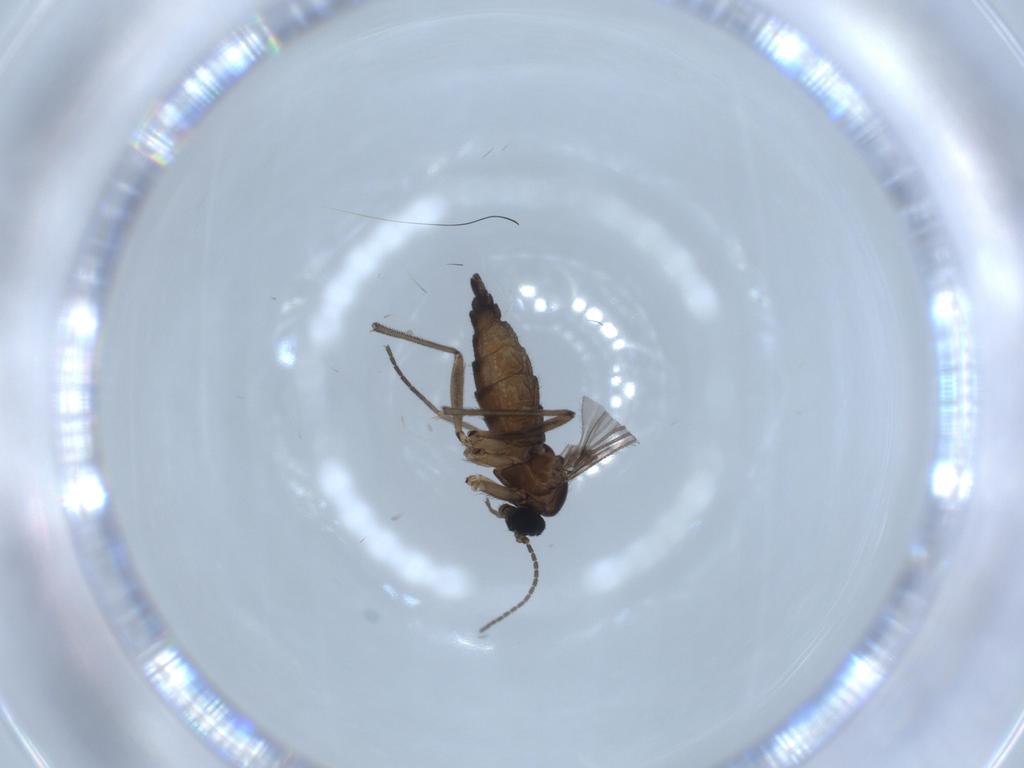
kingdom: Animalia
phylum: Arthropoda
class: Insecta
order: Diptera
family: Sciaridae
